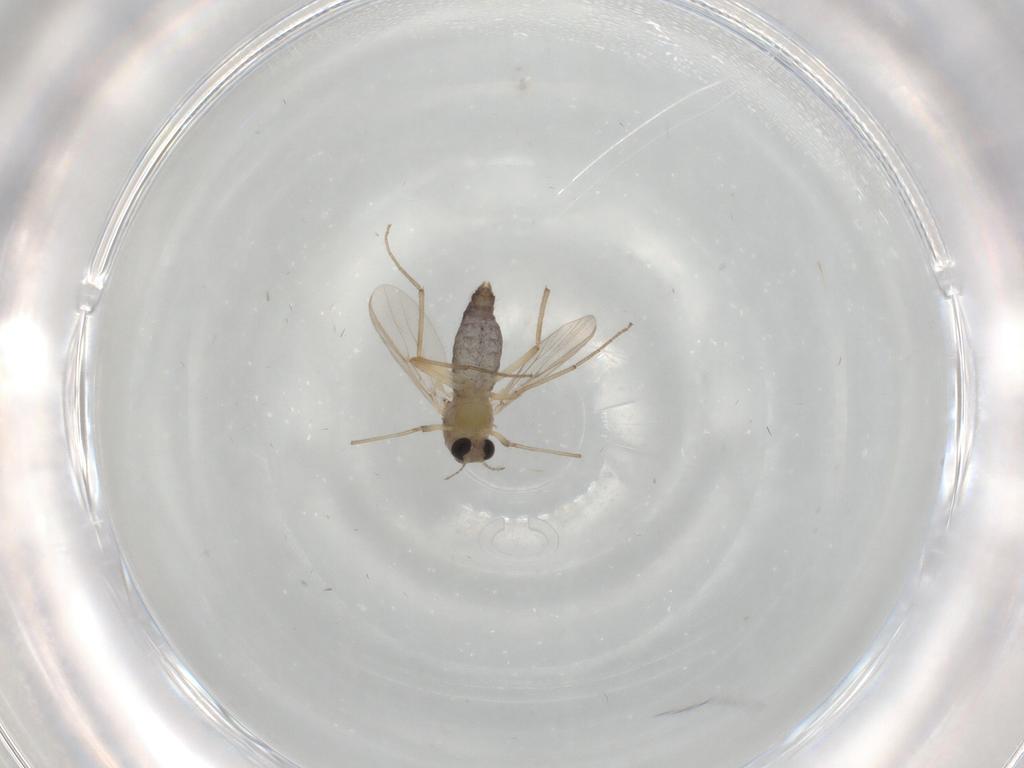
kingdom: Animalia
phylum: Arthropoda
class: Insecta
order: Diptera
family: Chironomidae
